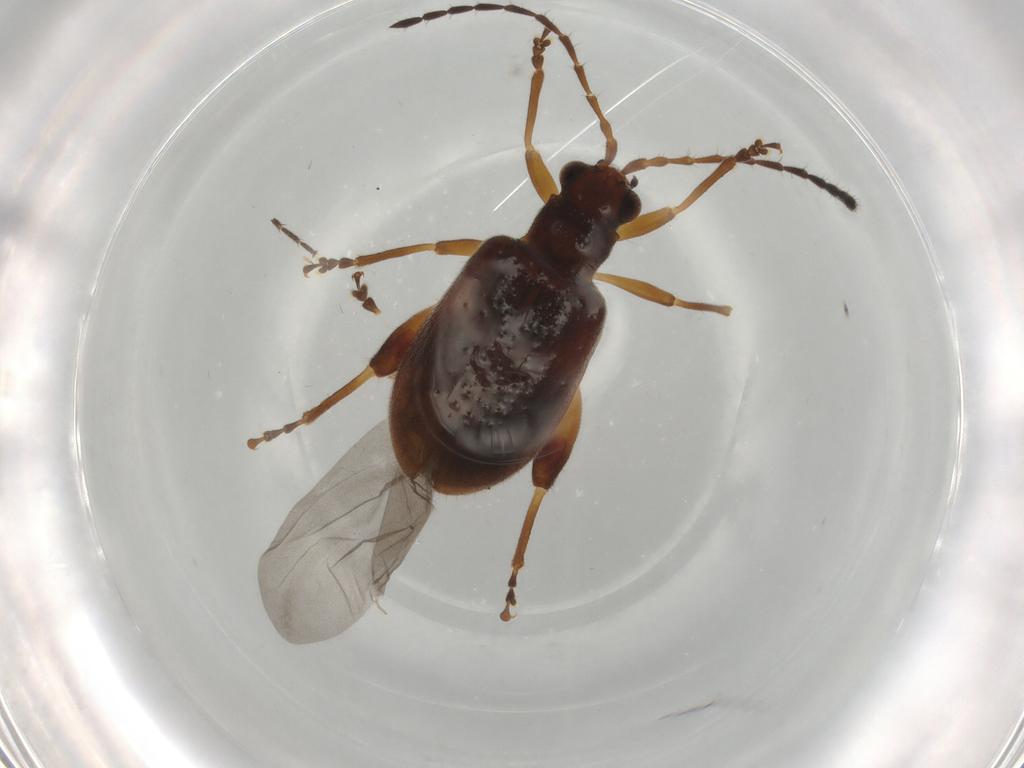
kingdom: Animalia
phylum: Arthropoda
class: Insecta
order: Coleoptera
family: Chrysomelidae
